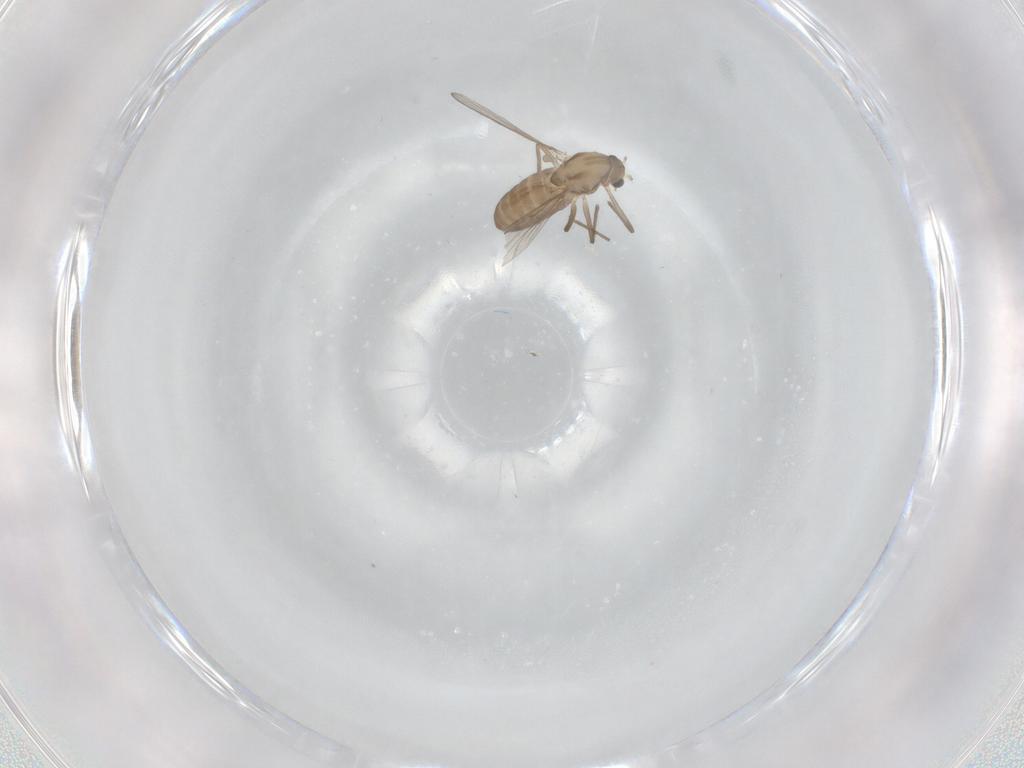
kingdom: Animalia
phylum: Arthropoda
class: Insecta
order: Diptera
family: Chironomidae
